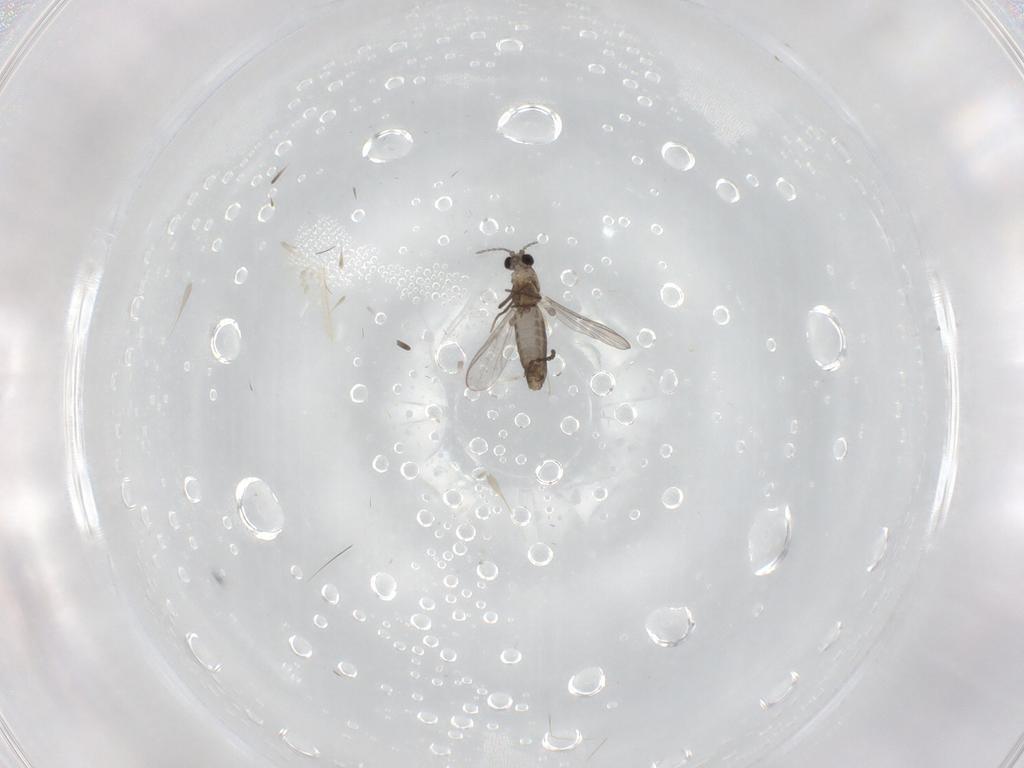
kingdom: Animalia
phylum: Arthropoda
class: Insecta
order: Diptera
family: Chironomidae
